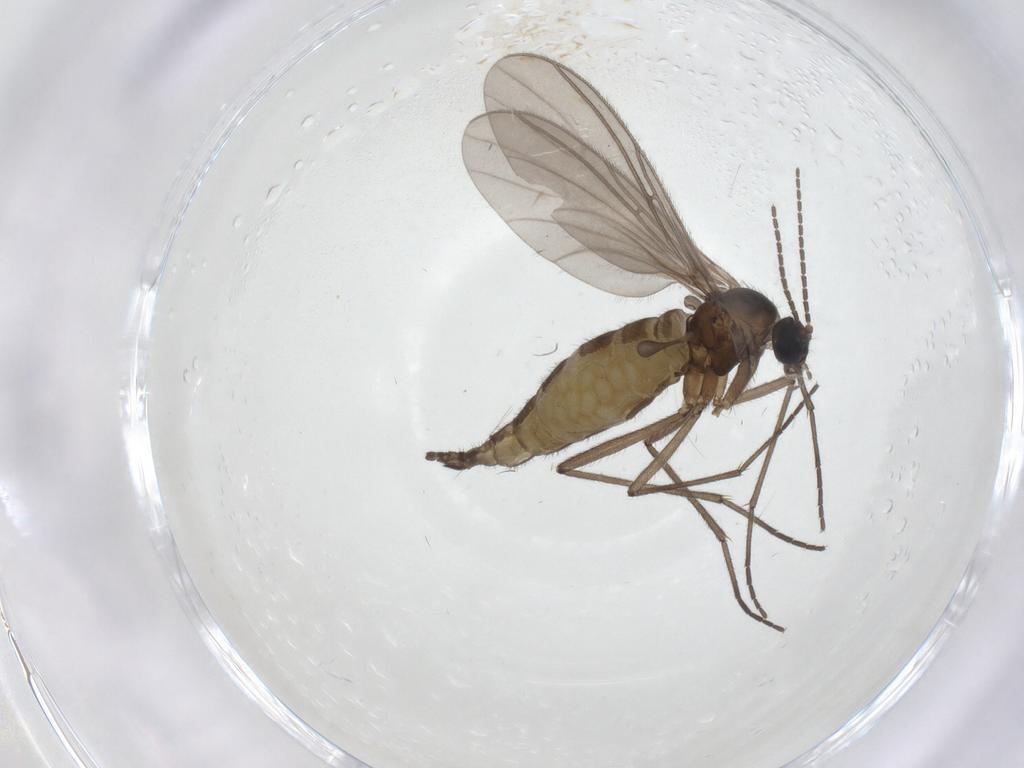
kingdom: Animalia
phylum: Arthropoda
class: Insecta
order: Diptera
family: Sciaridae
